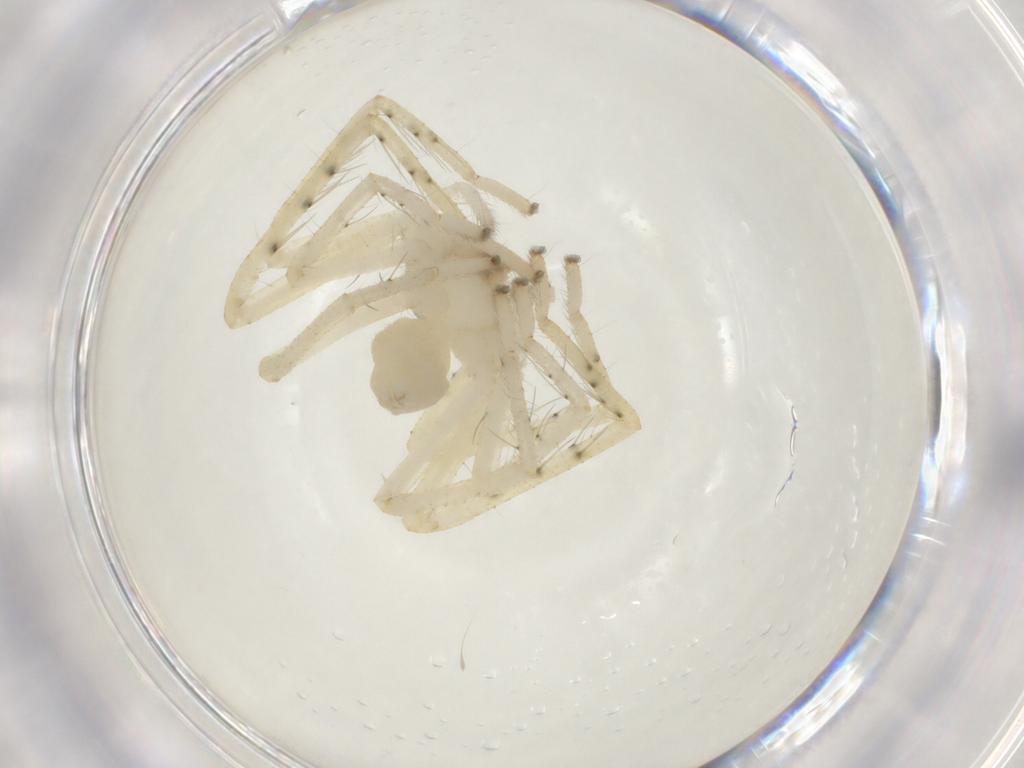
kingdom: Animalia
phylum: Arthropoda
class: Arachnida
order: Araneae
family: Sparassidae
